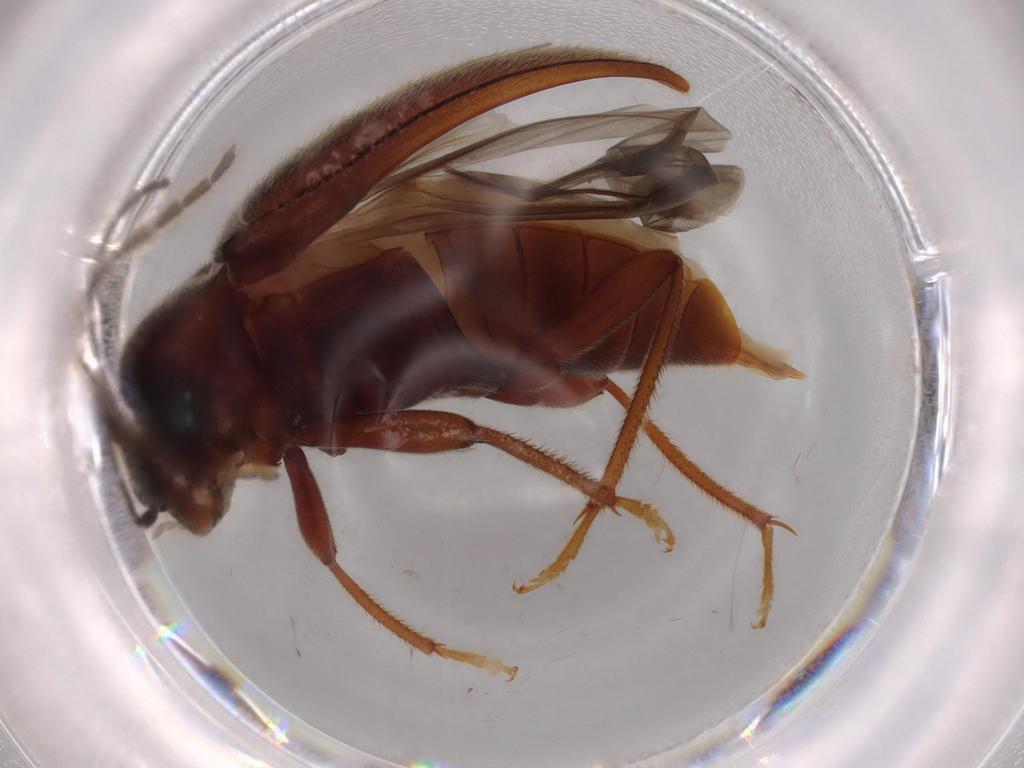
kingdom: Animalia
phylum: Arthropoda
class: Insecta
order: Coleoptera
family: Ptilodactylidae
